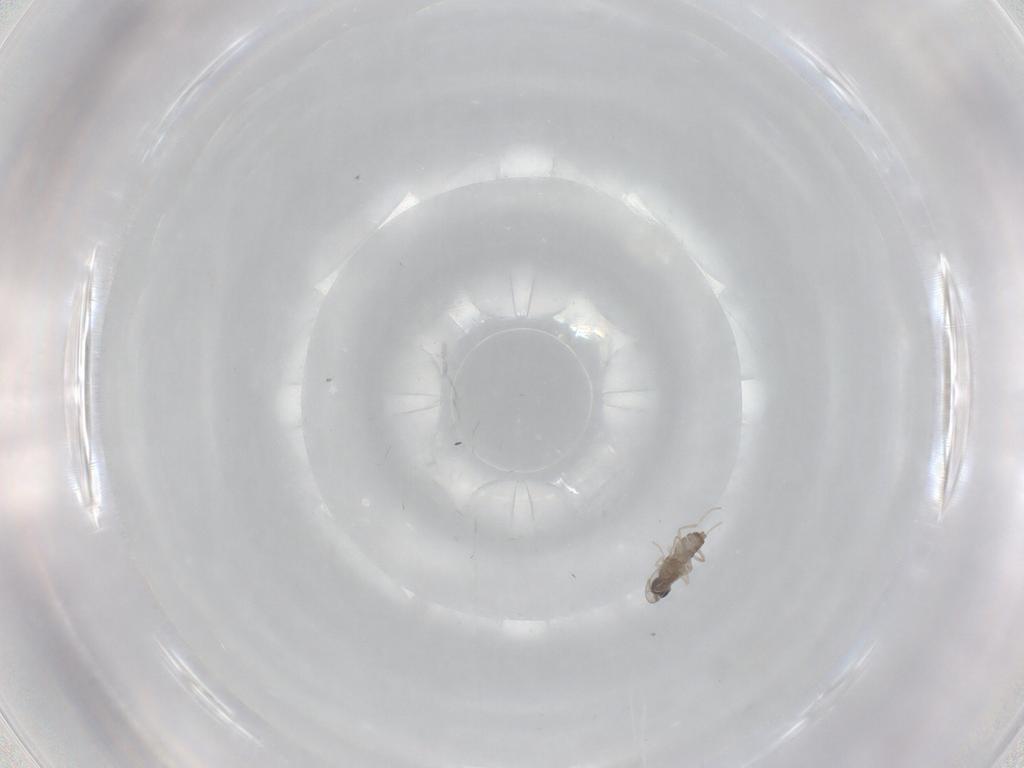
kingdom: Animalia
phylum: Arthropoda
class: Insecta
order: Diptera
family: Cecidomyiidae
